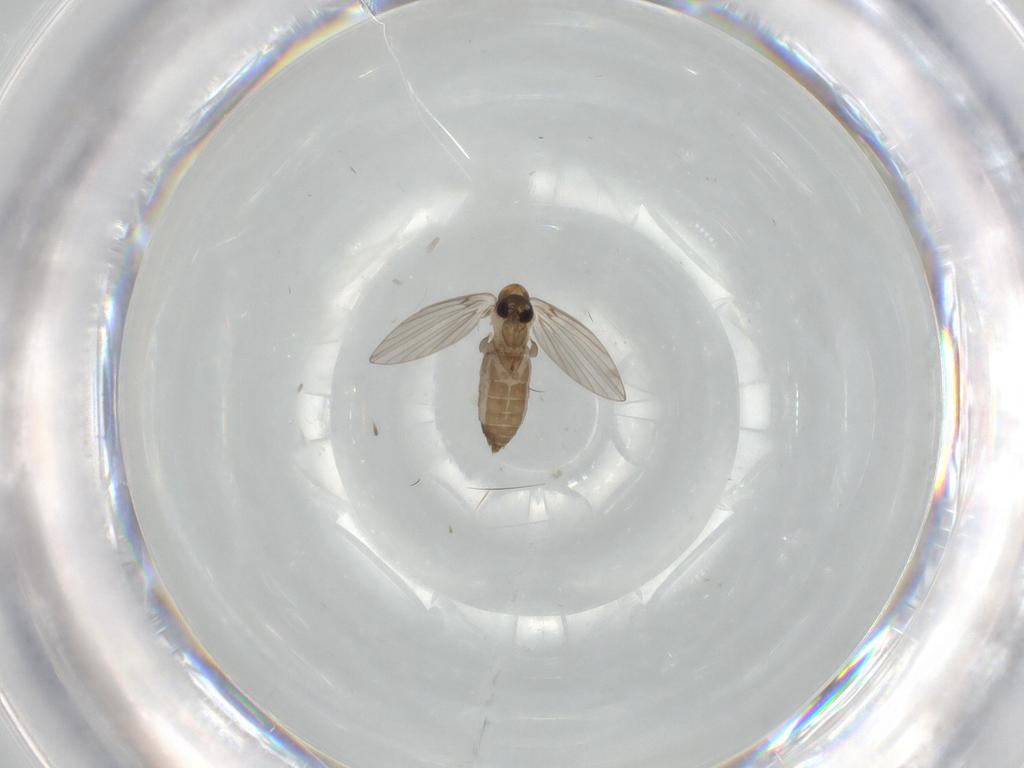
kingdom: Animalia
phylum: Arthropoda
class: Insecta
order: Diptera
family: Psychodidae
